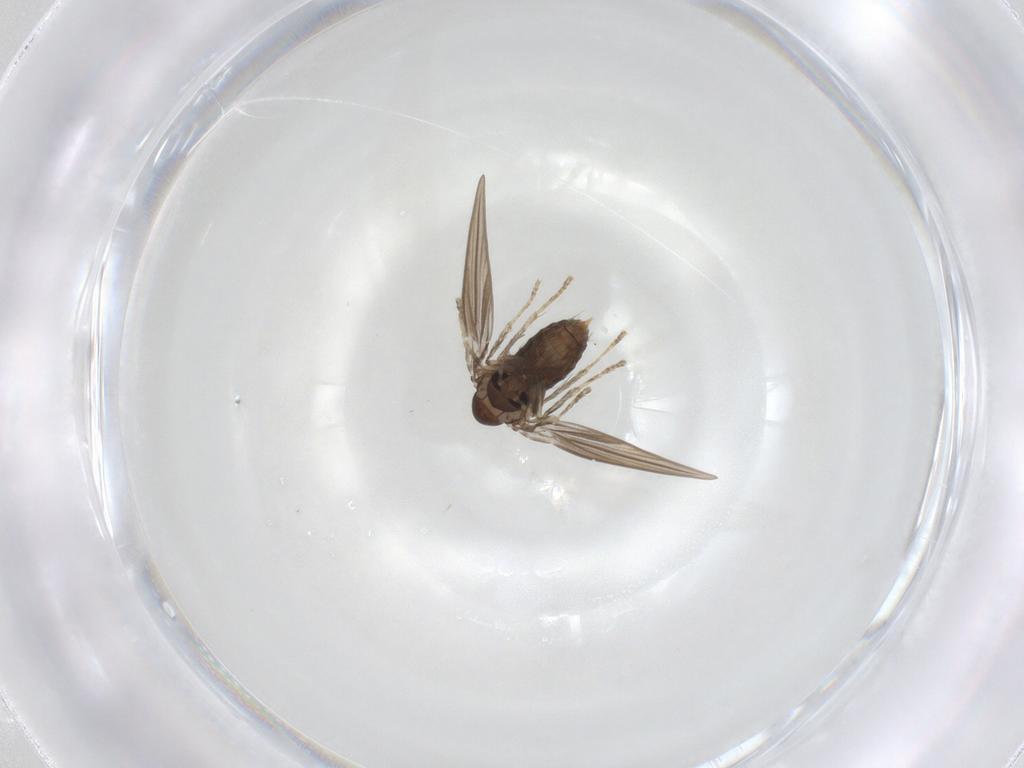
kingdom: Animalia
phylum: Arthropoda
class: Insecta
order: Diptera
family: Psychodidae
